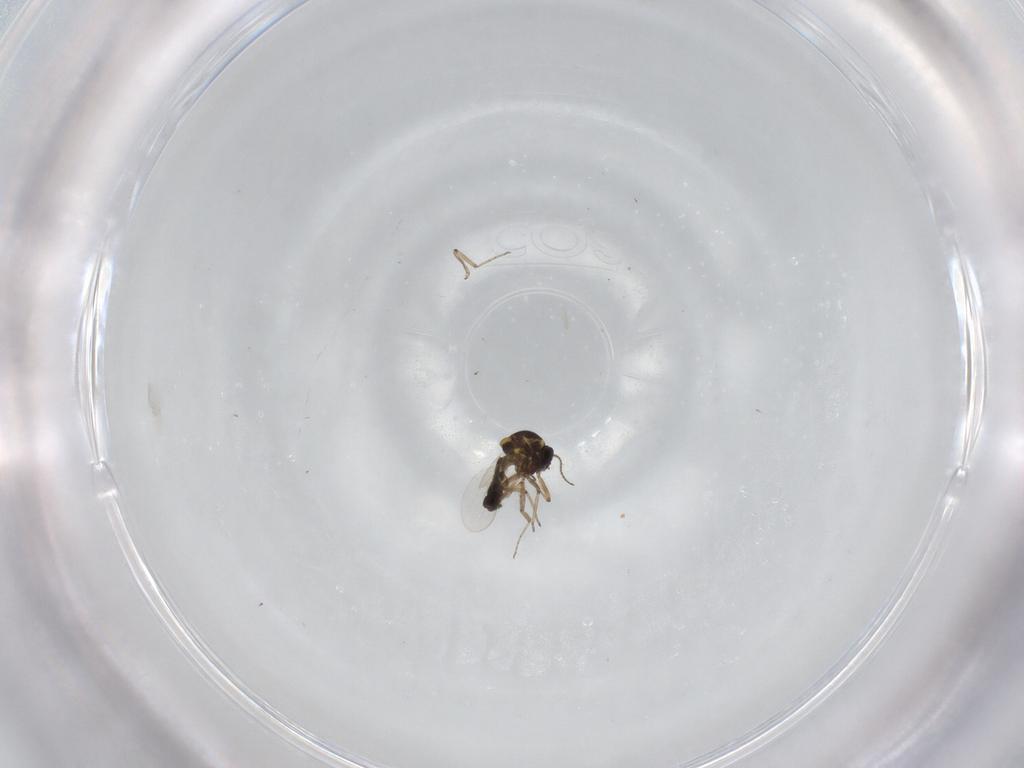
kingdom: Animalia
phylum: Arthropoda
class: Insecta
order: Diptera
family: Ceratopogonidae
